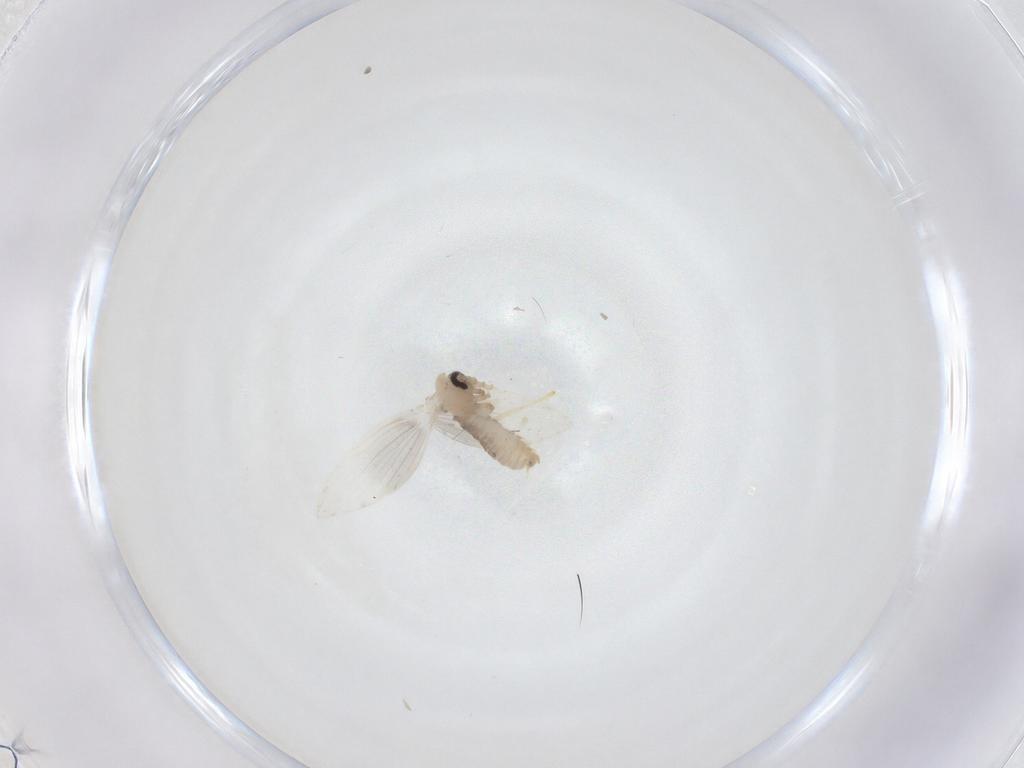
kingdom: Animalia
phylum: Arthropoda
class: Insecta
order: Diptera
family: Psychodidae
